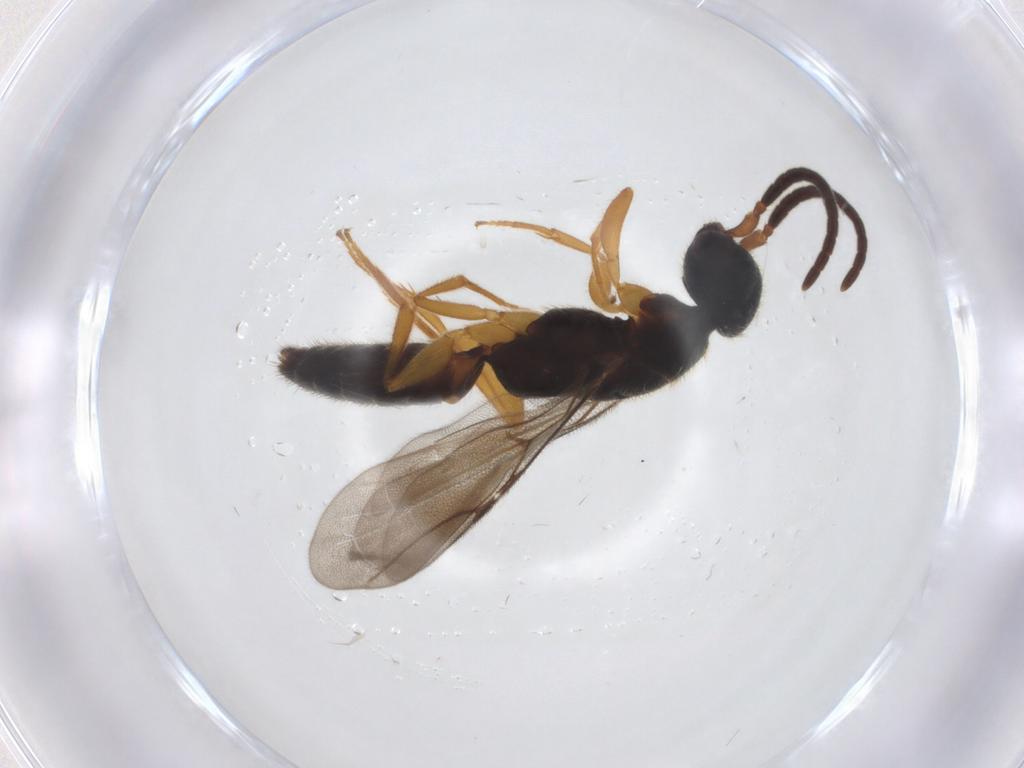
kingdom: Animalia
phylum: Arthropoda
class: Insecta
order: Hymenoptera
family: Bethylidae
